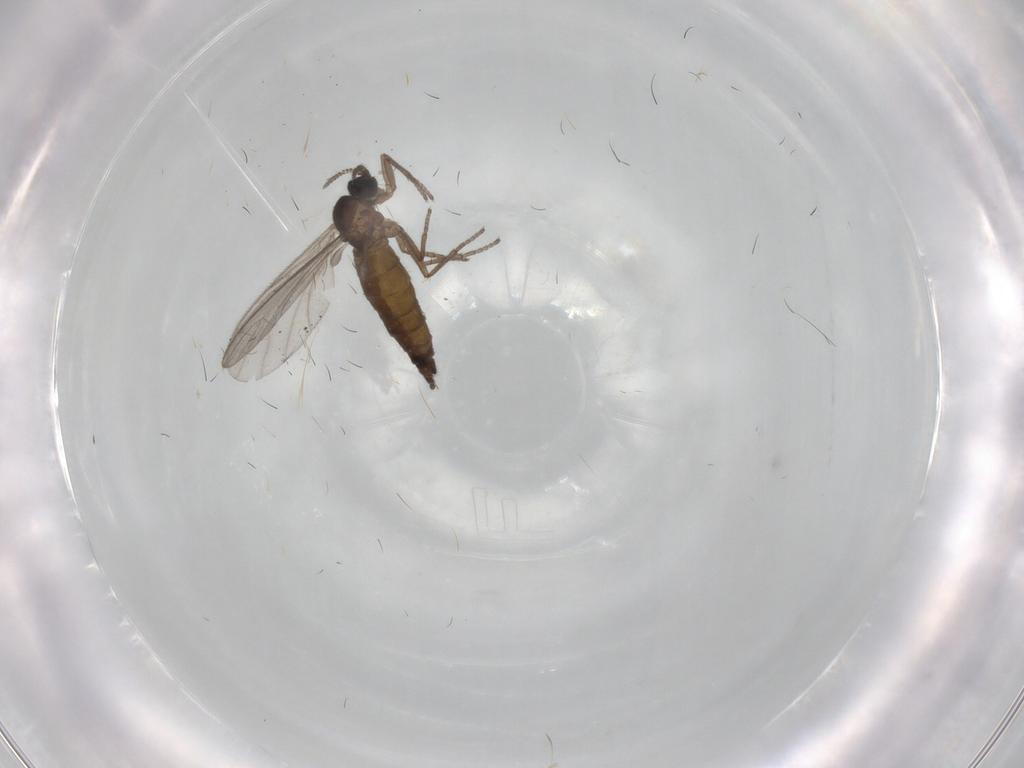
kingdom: Animalia
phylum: Arthropoda
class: Insecta
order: Diptera
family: Sciaridae
